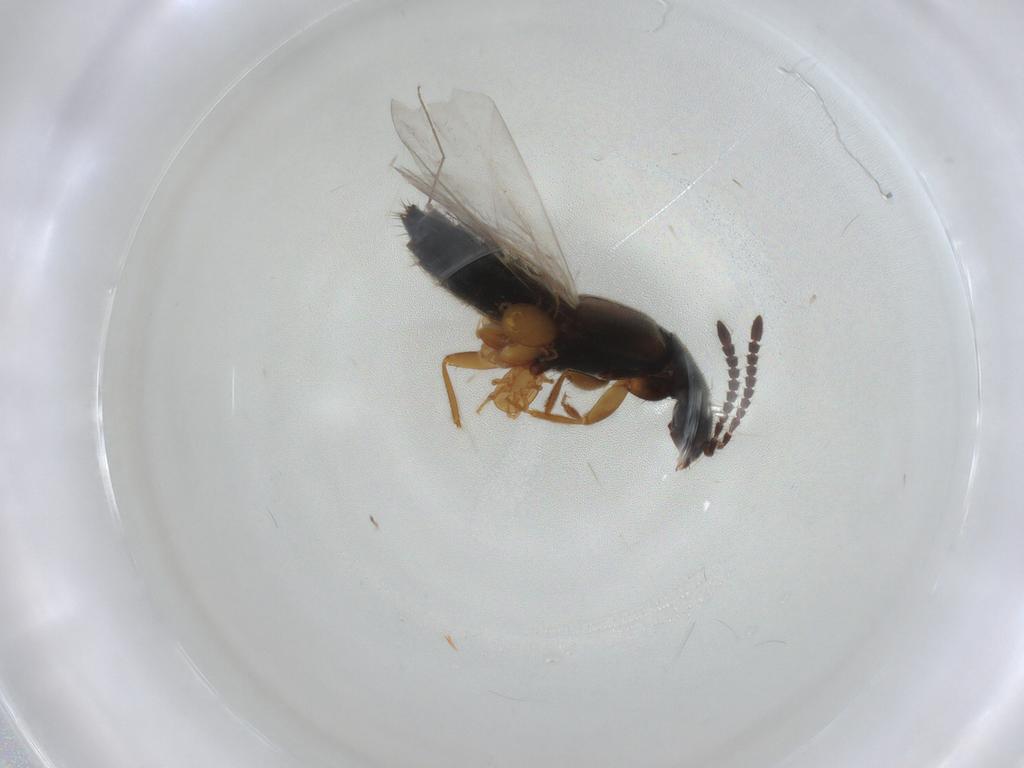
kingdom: Animalia
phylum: Arthropoda
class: Insecta
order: Coleoptera
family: Staphylinidae
